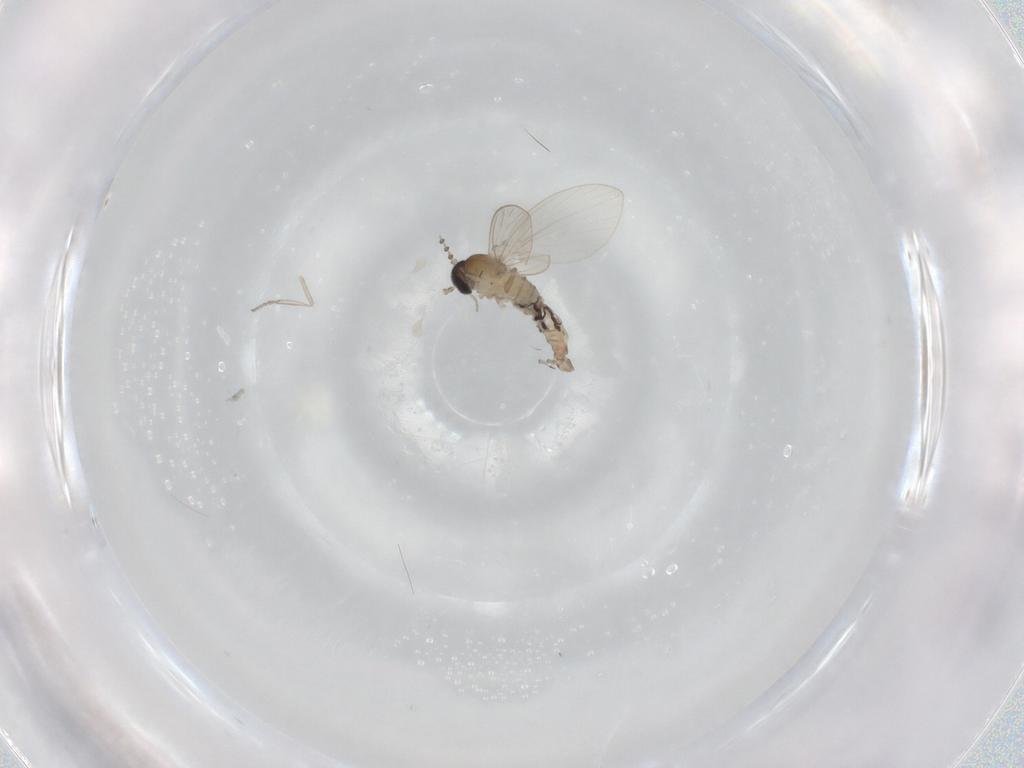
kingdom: Animalia
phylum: Arthropoda
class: Insecta
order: Diptera
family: Psychodidae
